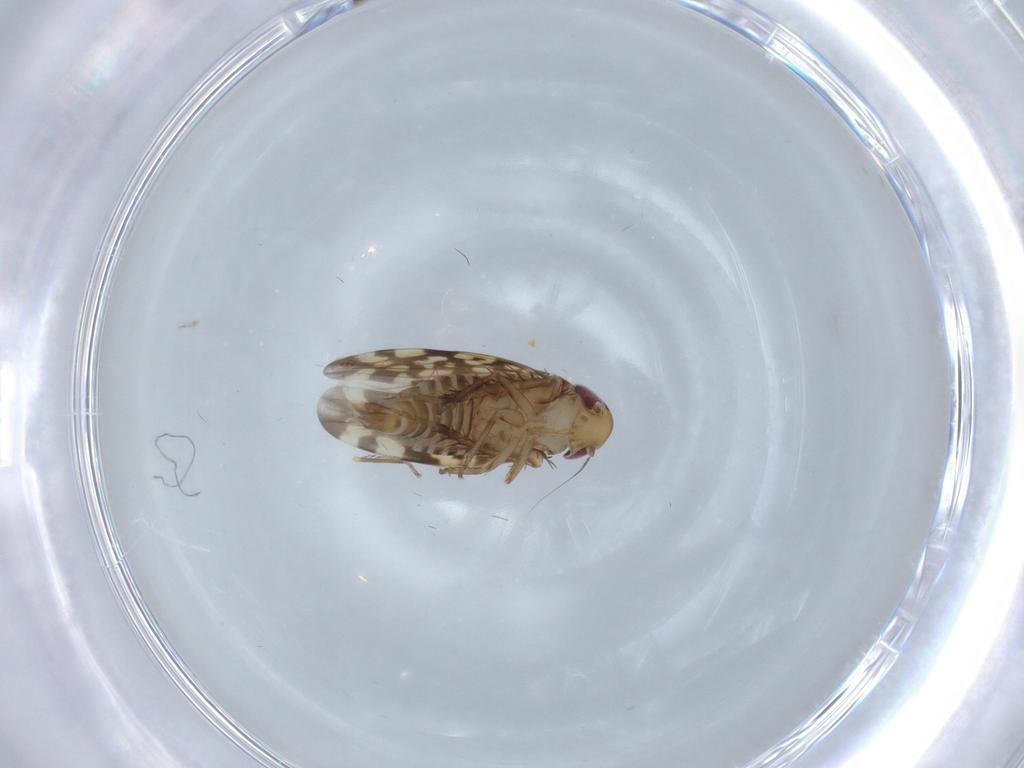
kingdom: Animalia
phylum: Arthropoda
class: Insecta
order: Hemiptera
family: Cicadellidae
